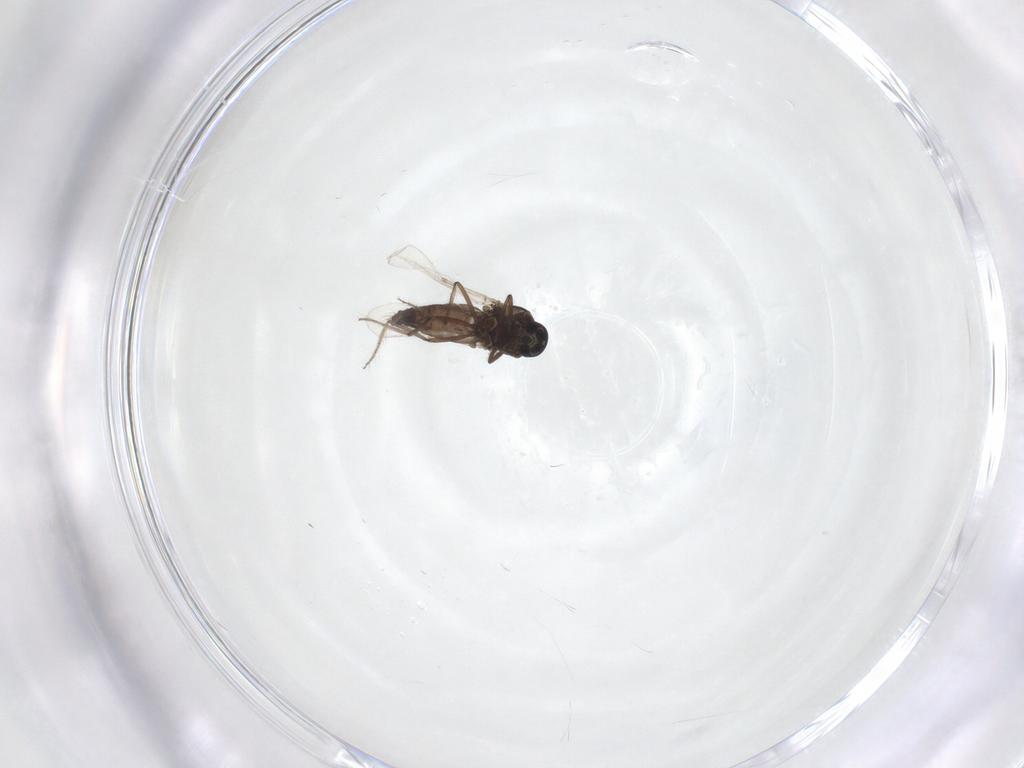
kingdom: Animalia
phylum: Arthropoda
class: Insecta
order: Diptera
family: Ceratopogonidae
